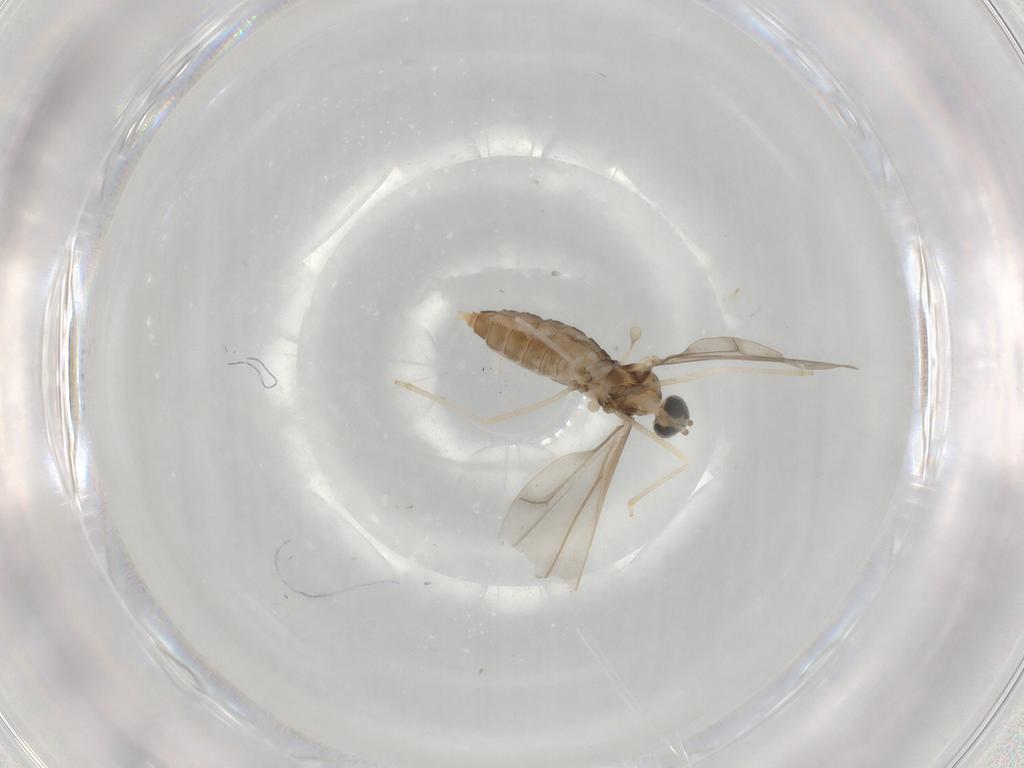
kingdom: Animalia
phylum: Arthropoda
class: Insecta
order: Diptera
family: Cecidomyiidae
